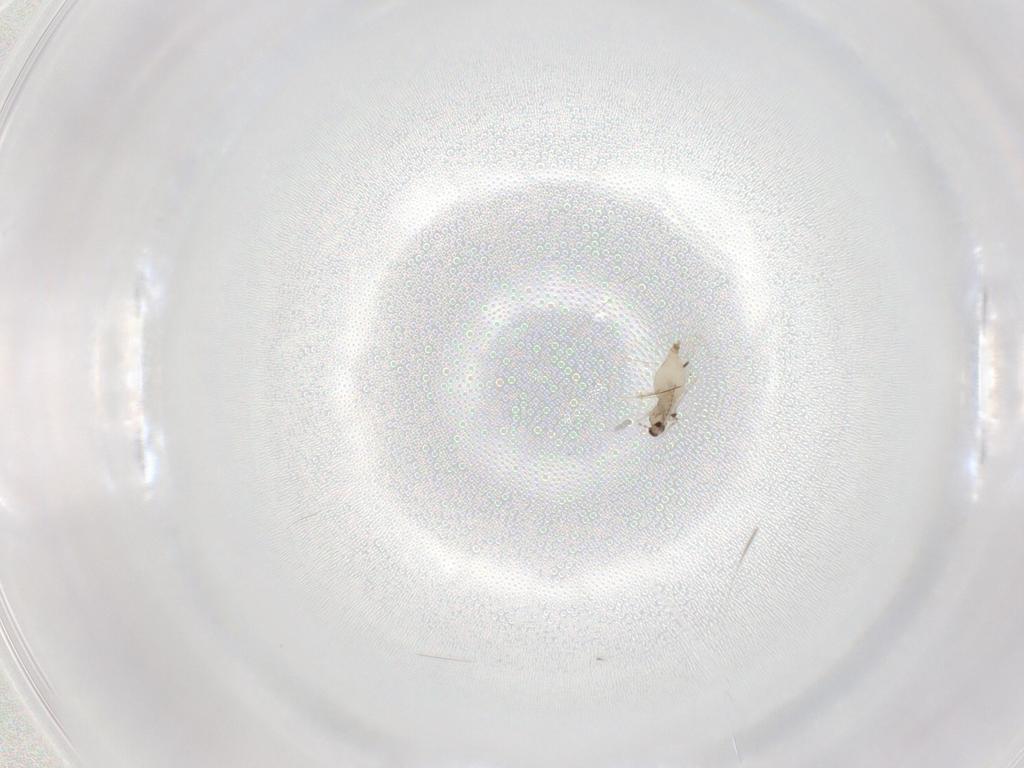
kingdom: Animalia
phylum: Arthropoda
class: Insecta
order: Diptera
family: Cecidomyiidae
